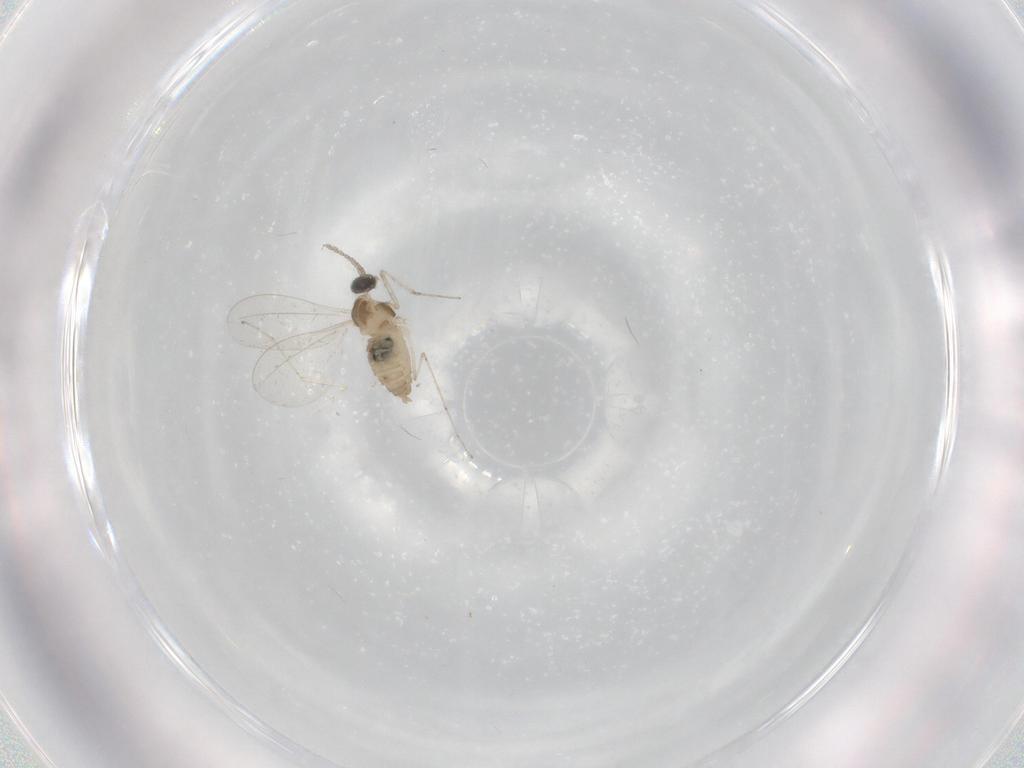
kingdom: Animalia
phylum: Arthropoda
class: Insecta
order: Diptera
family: Cecidomyiidae
